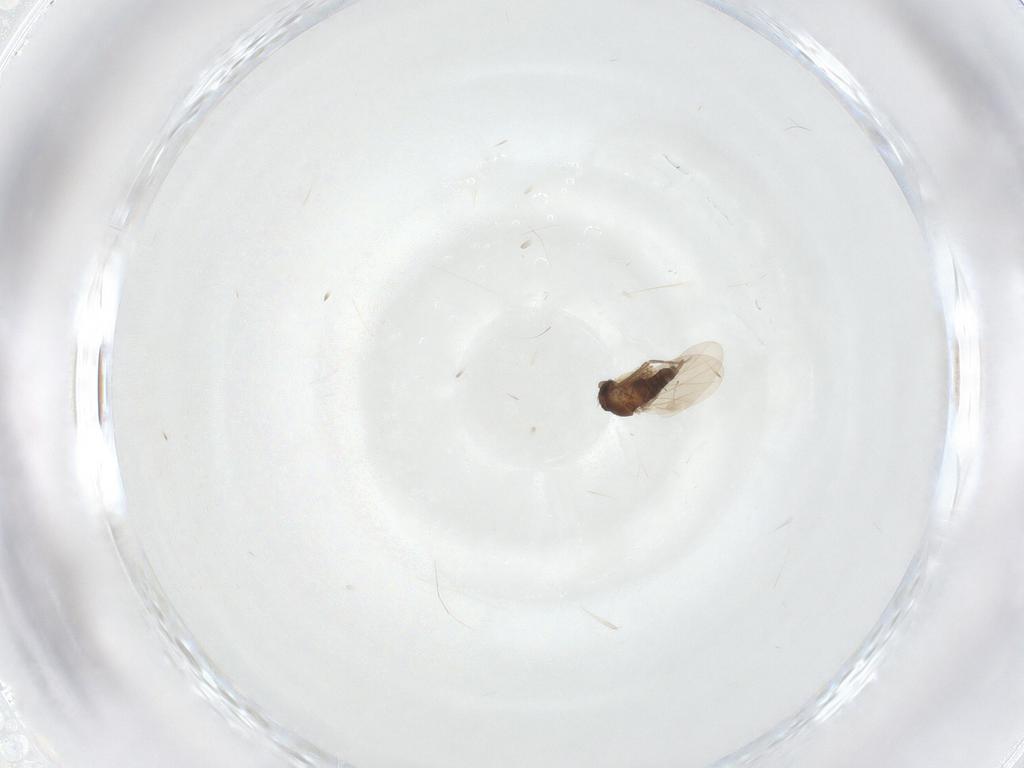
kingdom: Animalia
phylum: Arthropoda
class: Insecta
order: Diptera
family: Phoridae
